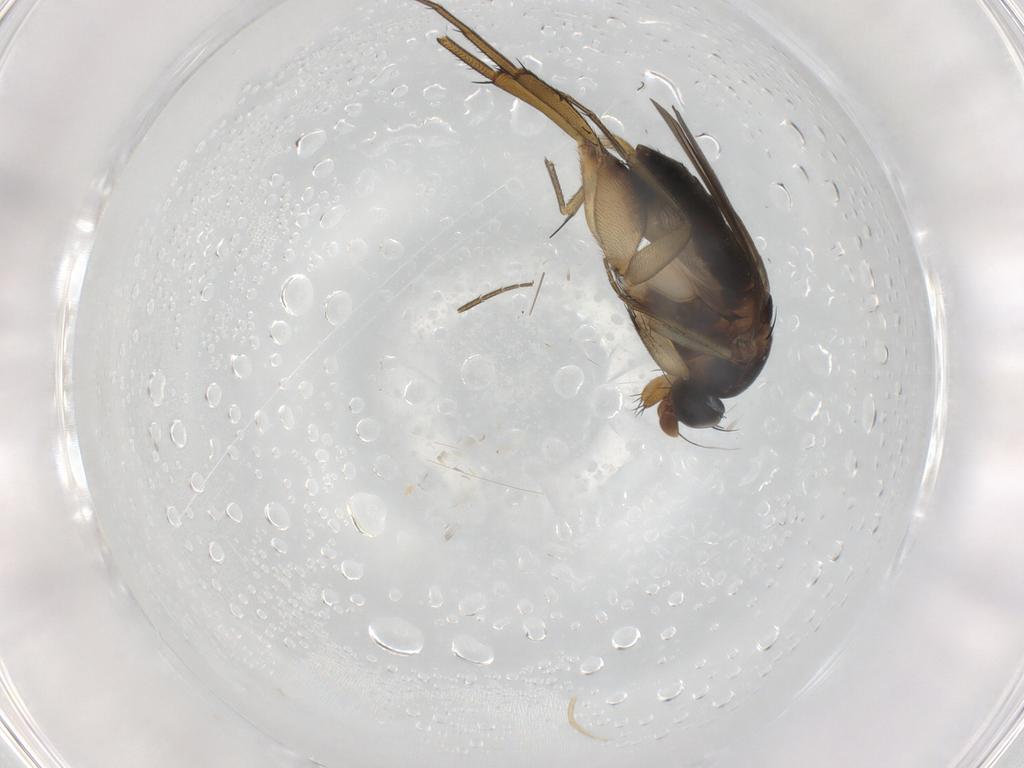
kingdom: Animalia
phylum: Arthropoda
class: Insecta
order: Diptera
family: Phoridae
